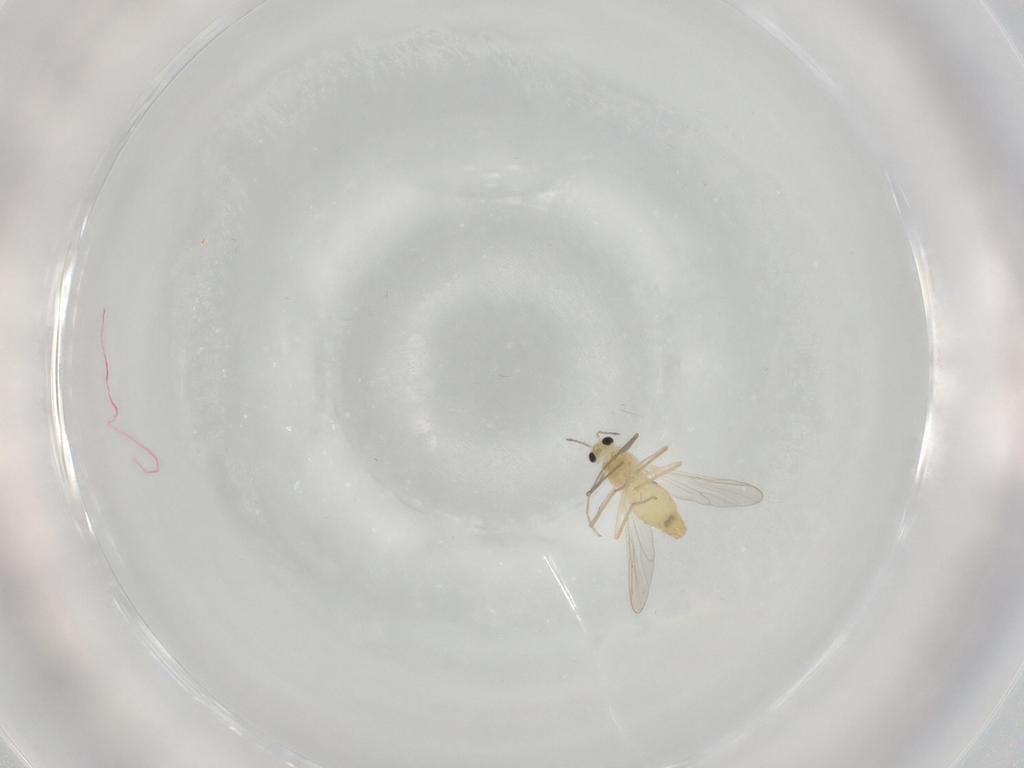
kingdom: Animalia
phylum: Arthropoda
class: Insecta
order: Diptera
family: Chironomidae
